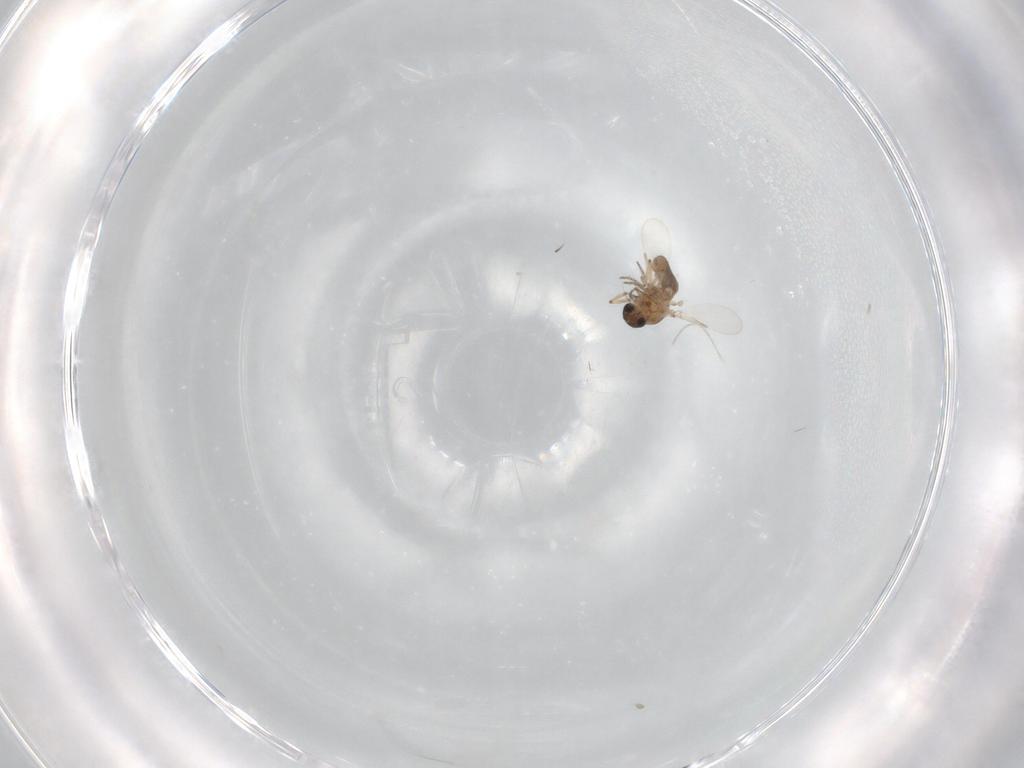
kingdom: Animalia
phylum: Arthropoda
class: Insecta
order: Diptera
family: Ceratopogonidae
